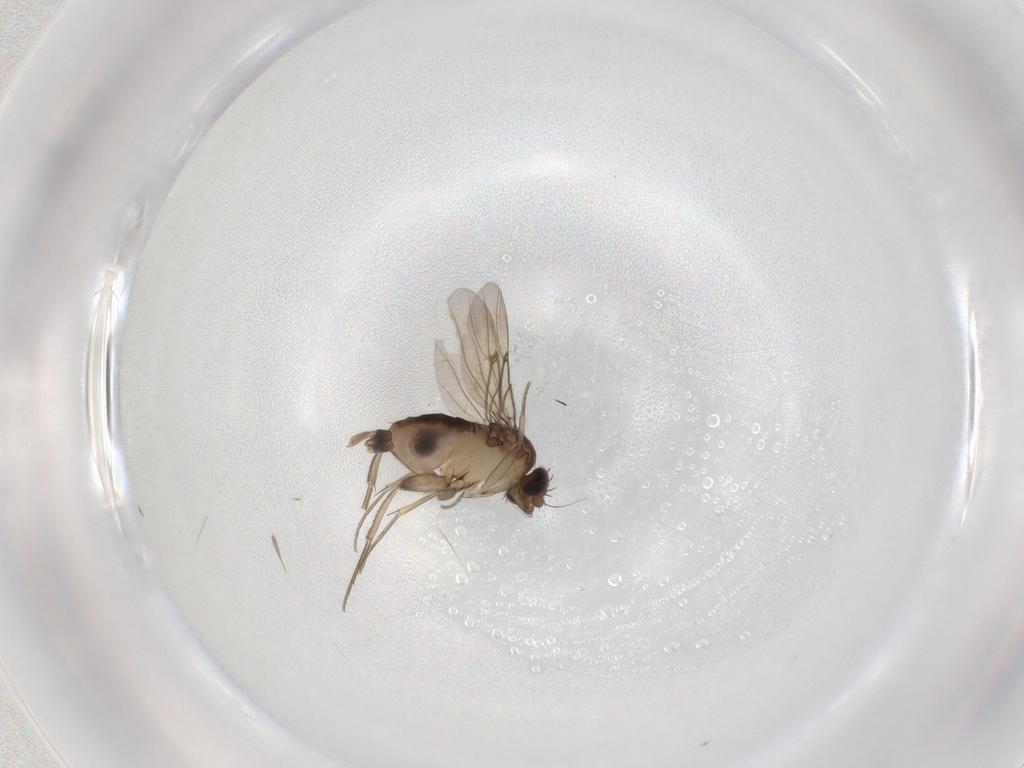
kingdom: Animalia
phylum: Arthropoda
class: Insecta
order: Diptera
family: Phoridae
